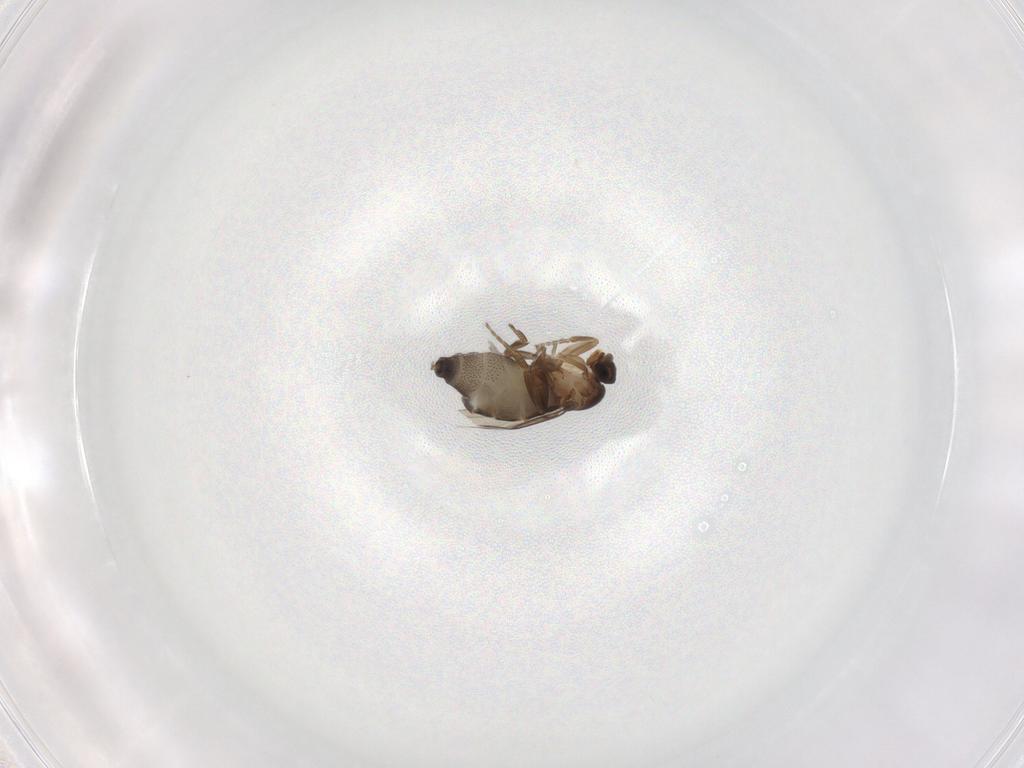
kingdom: Animalia
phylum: Arthropoda
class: Insecta
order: Diptera
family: Phoridae
